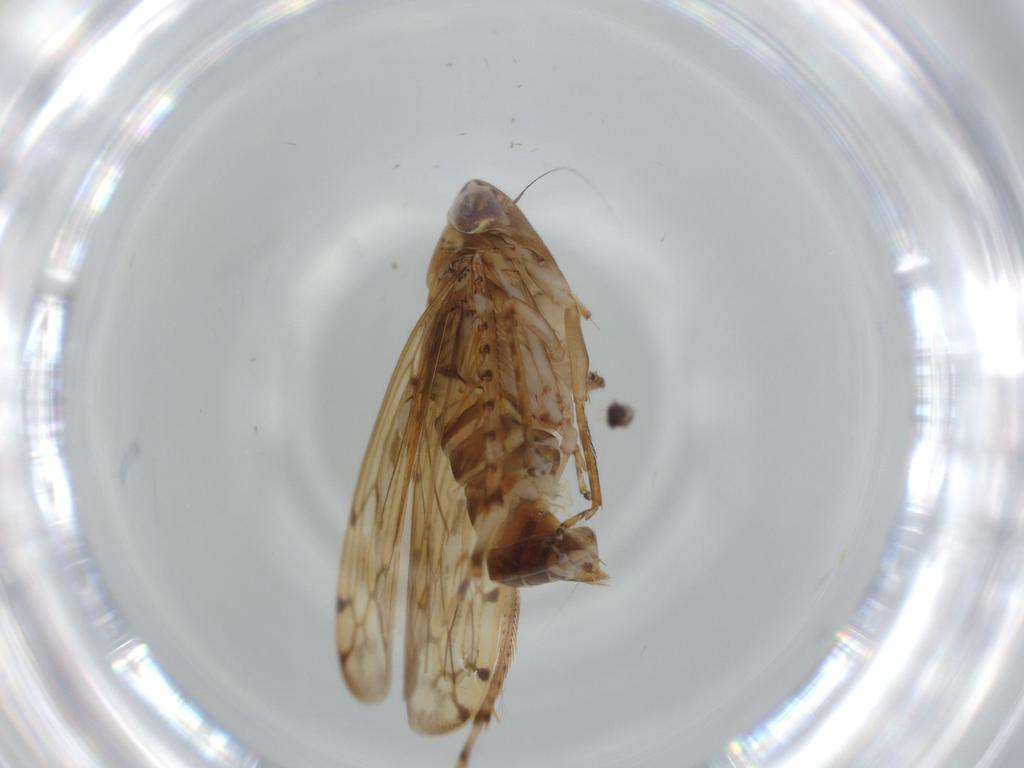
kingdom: Animalia
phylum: Arthropoda
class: Insecta
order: Hemiptera
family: Cicadellidae
